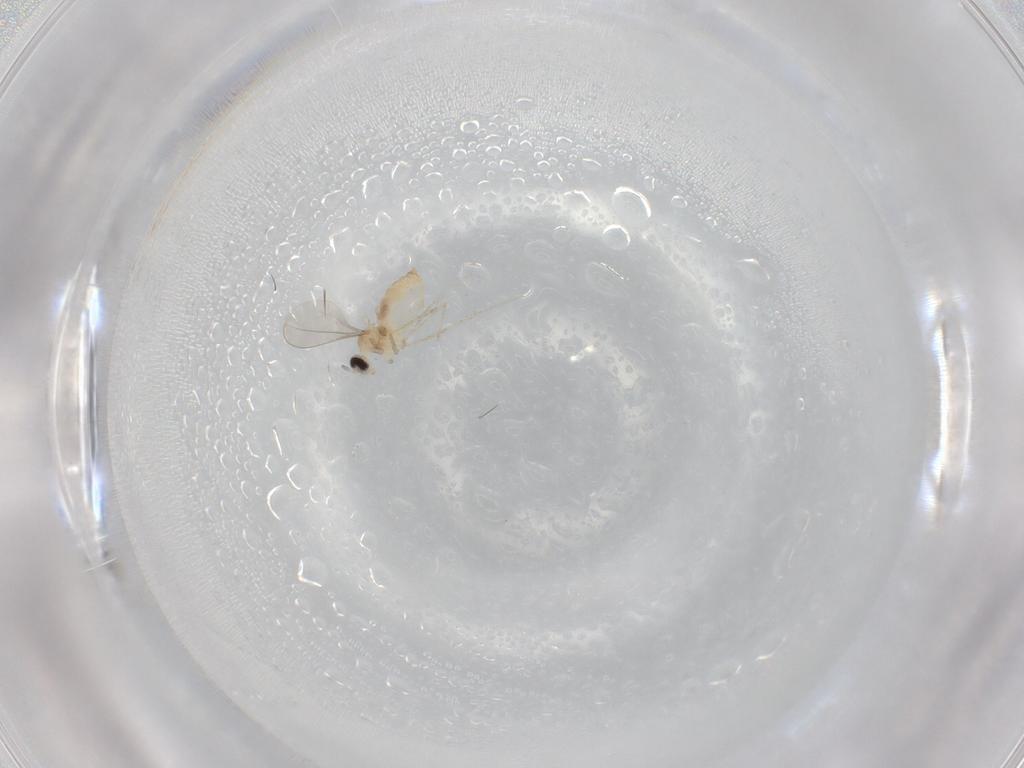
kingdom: Animalia
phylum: Arthropoda
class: Insecta
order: Diptera
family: Cecidomyiidae
